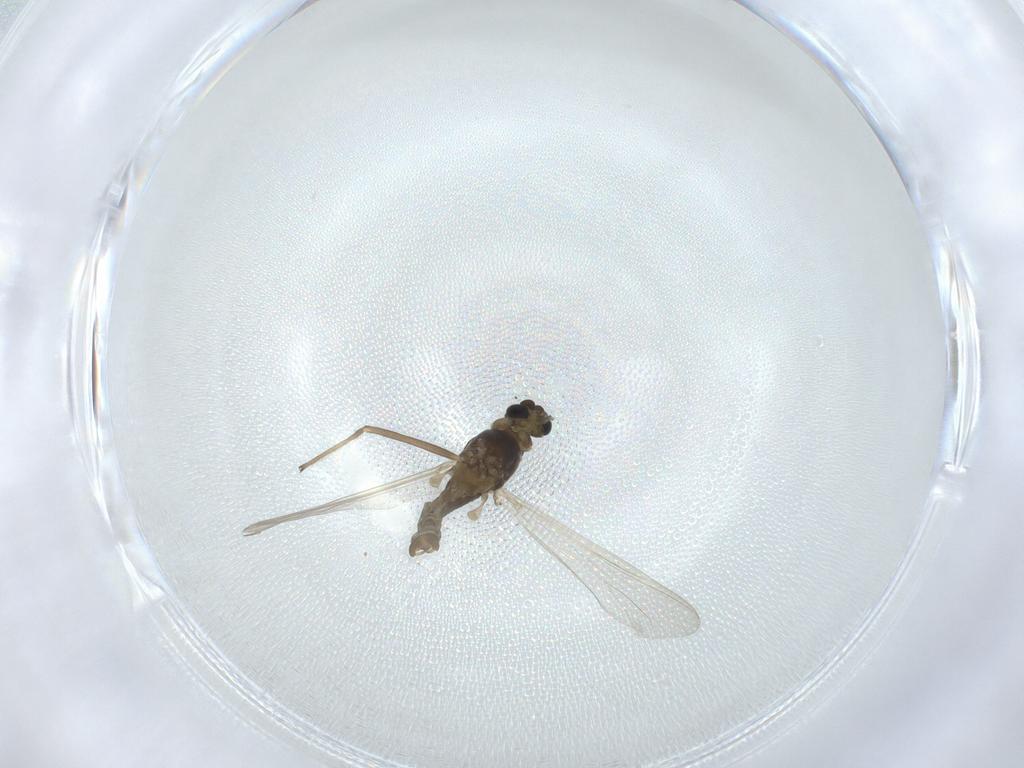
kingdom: Animalia
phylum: Arthropoda
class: Insecta
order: Diptera
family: Chironomidae
